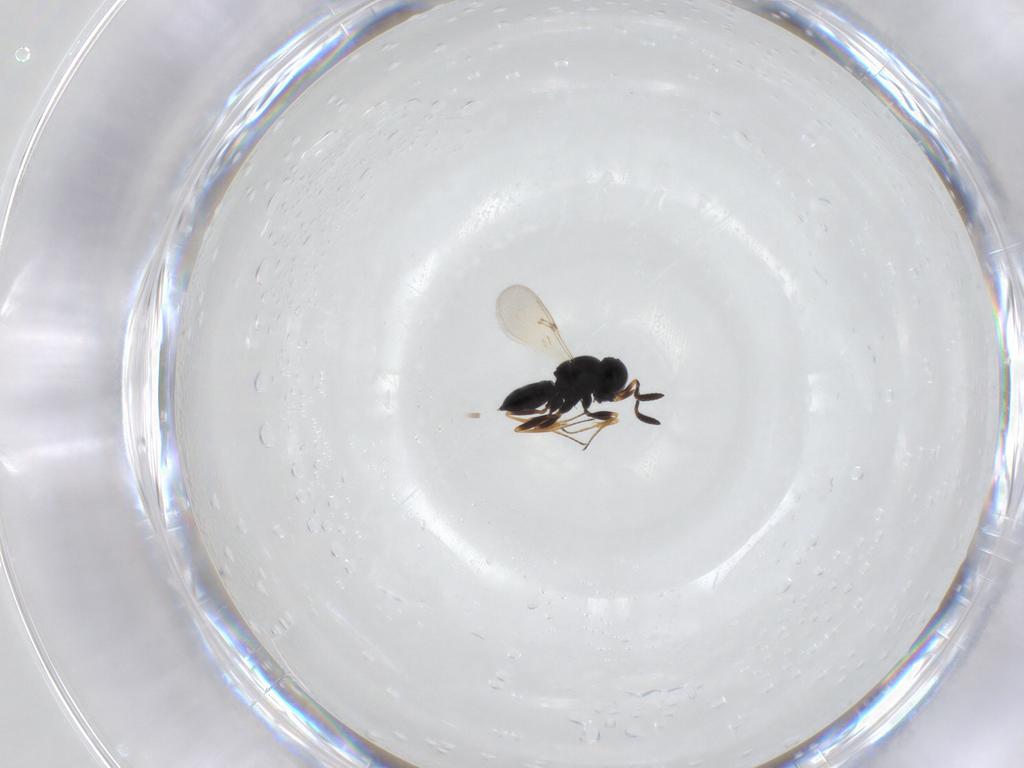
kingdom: Animalia
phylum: Arthropoda
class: Insecta
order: Hymenoptera
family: Scelionidae
